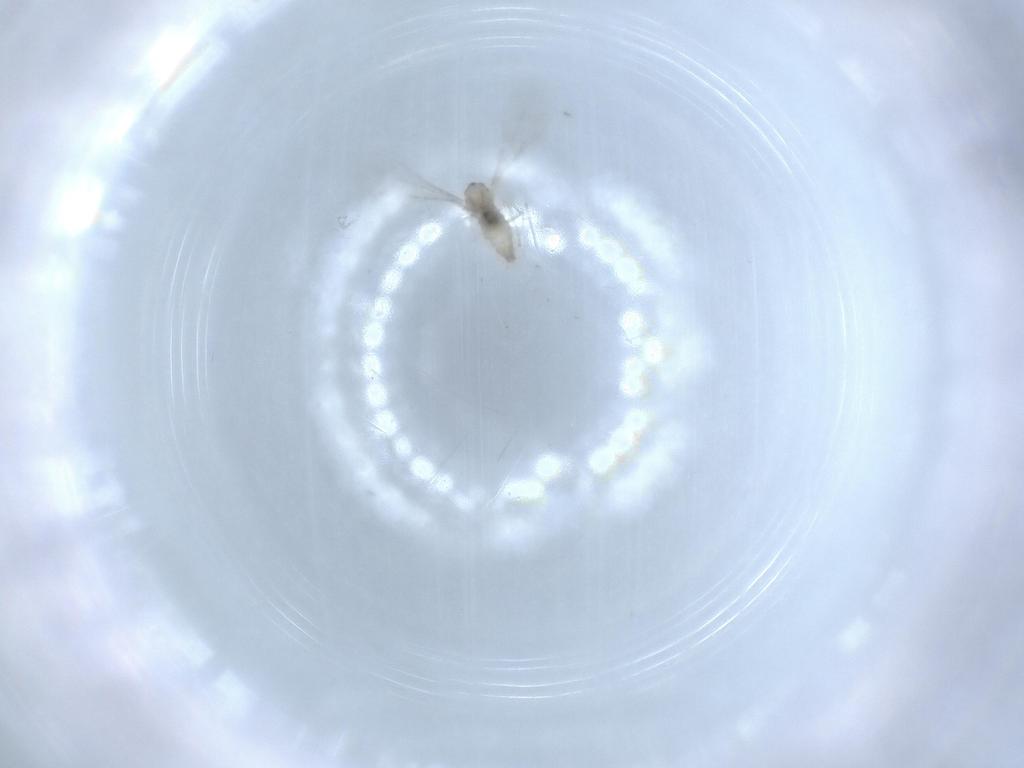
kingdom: Animalia
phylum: Arthropoda
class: Insecta
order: Diptera
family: Cecidomyiidae
